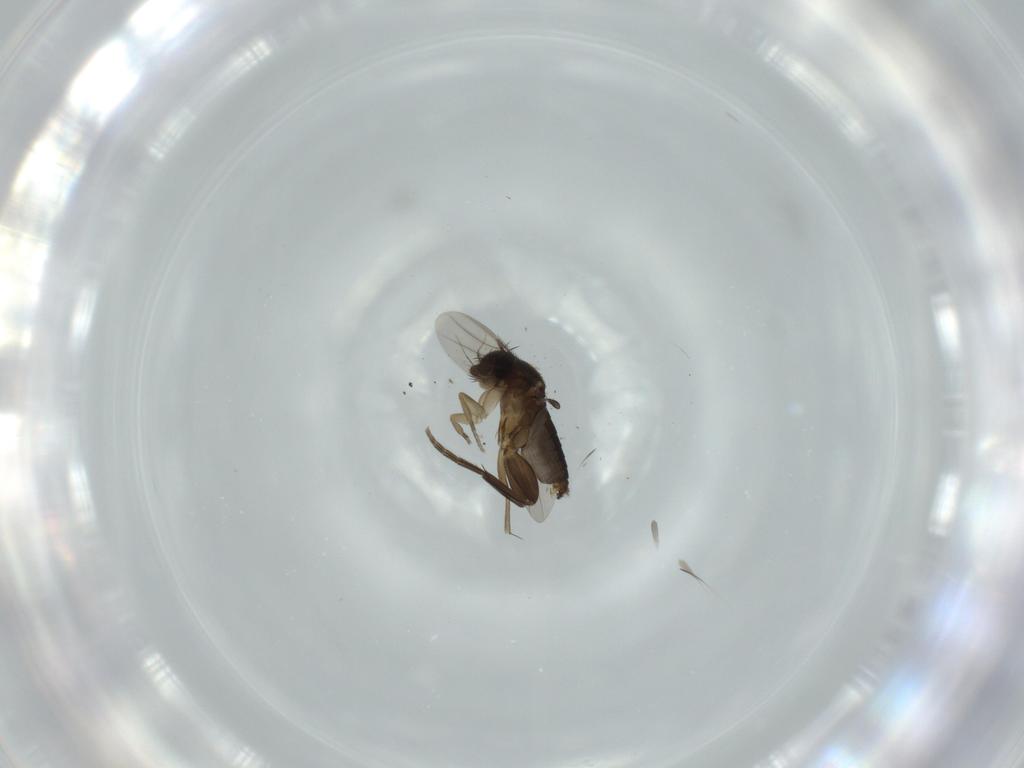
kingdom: Animalia
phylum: Arthropoda
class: Insecta
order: Diptera
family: Phoridae
